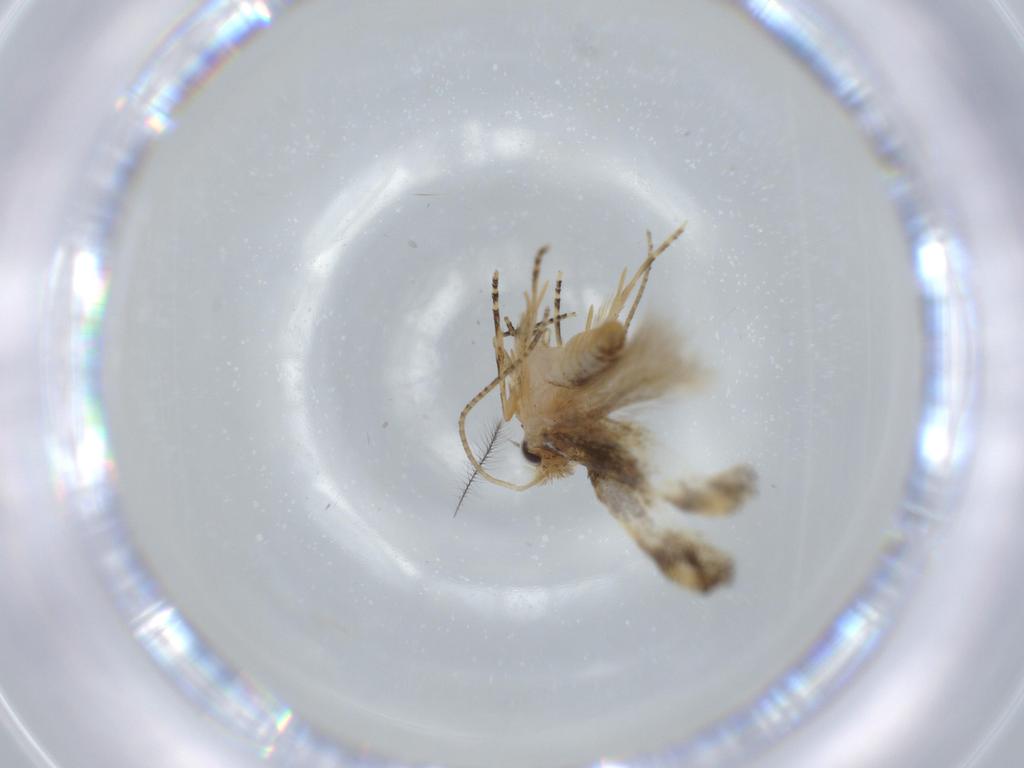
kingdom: Animalia
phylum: Arthropoda
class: Insecta
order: Lepidoptera
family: Bucculatricidae
